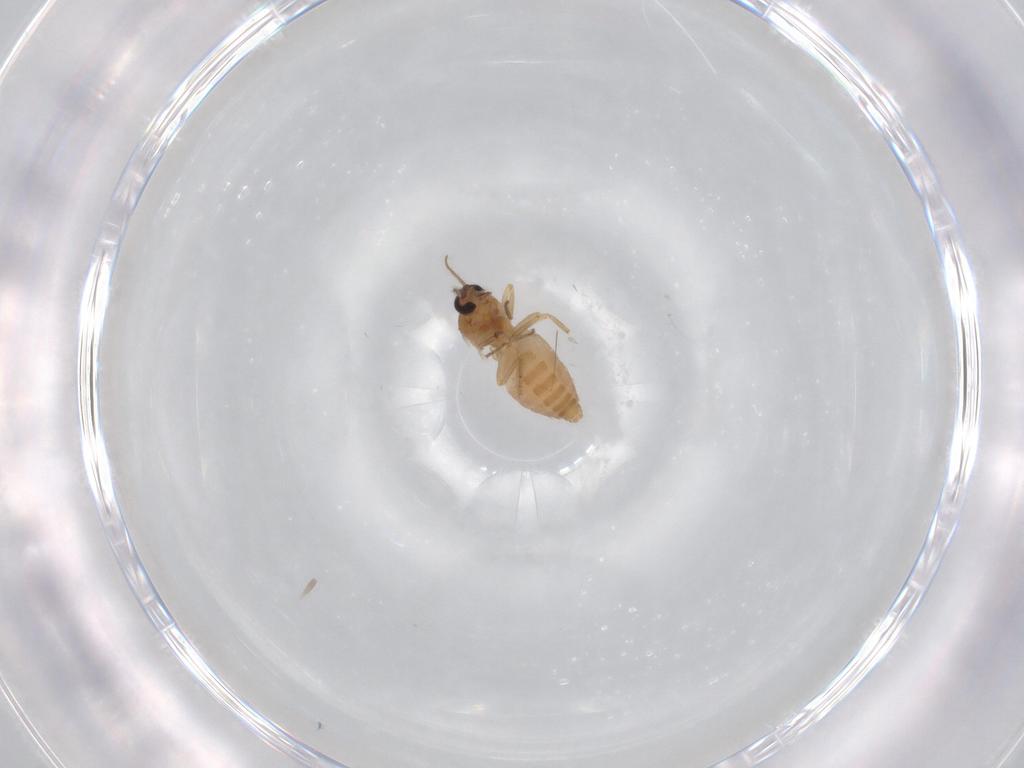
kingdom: Animalia
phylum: Arthropoda
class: Insecta
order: Diptera
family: Ceratopogonidae
